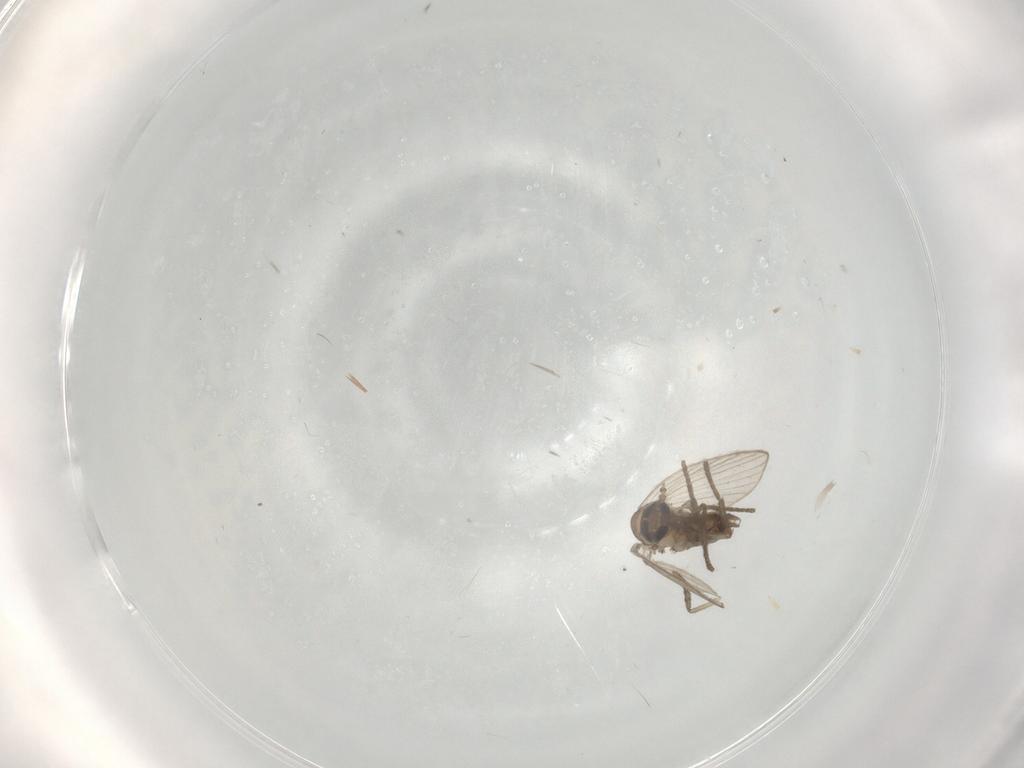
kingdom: Animalia
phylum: Arthropoda
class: Insecta
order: Diptera
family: Psychodidae
